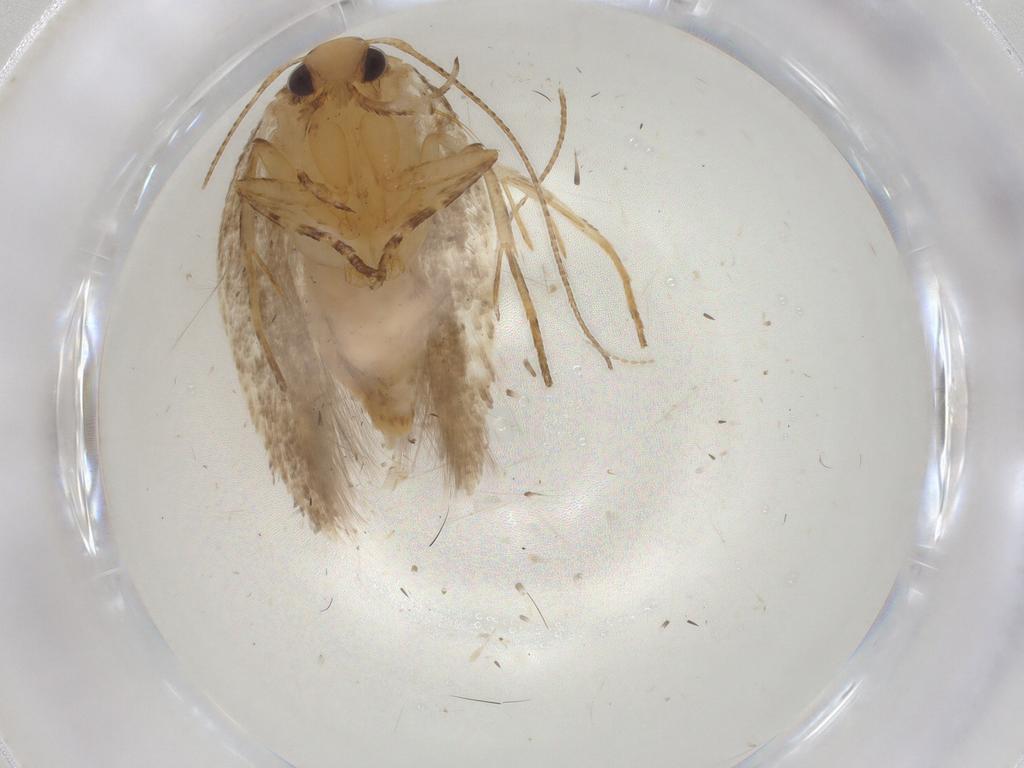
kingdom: Animalia
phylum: Arthropoda
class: Insecta
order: Lepidoptera
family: Gelechiidae
